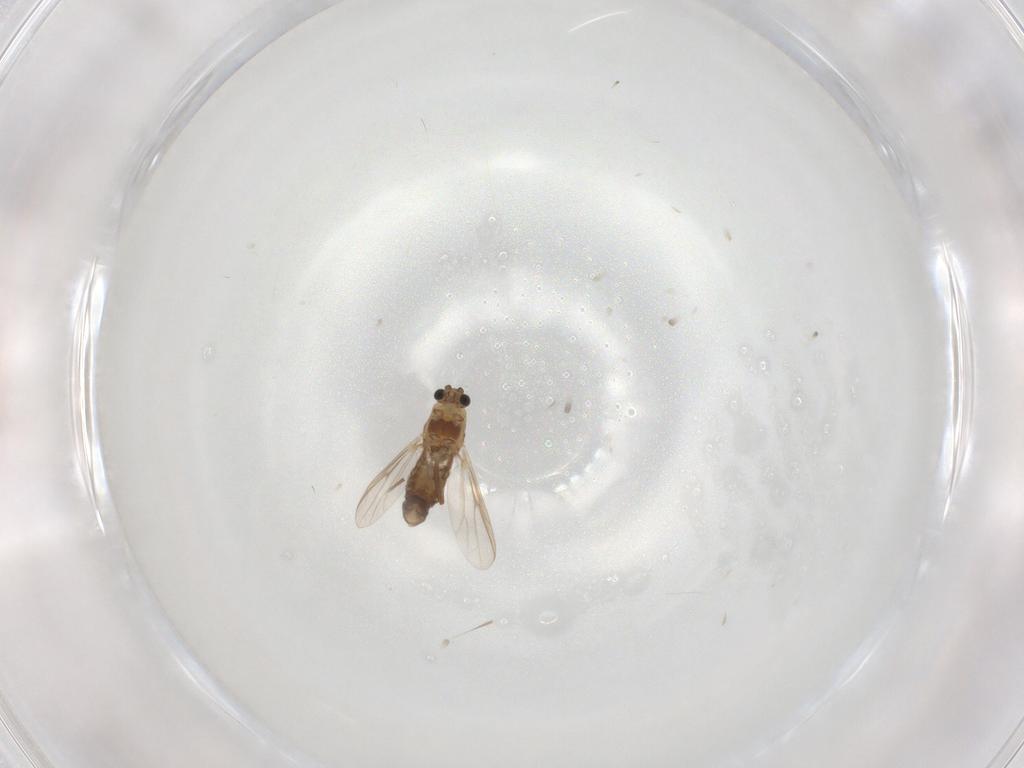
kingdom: Animalia
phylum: Arthropoda
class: Insecta
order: Diptera
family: Chironomidae
